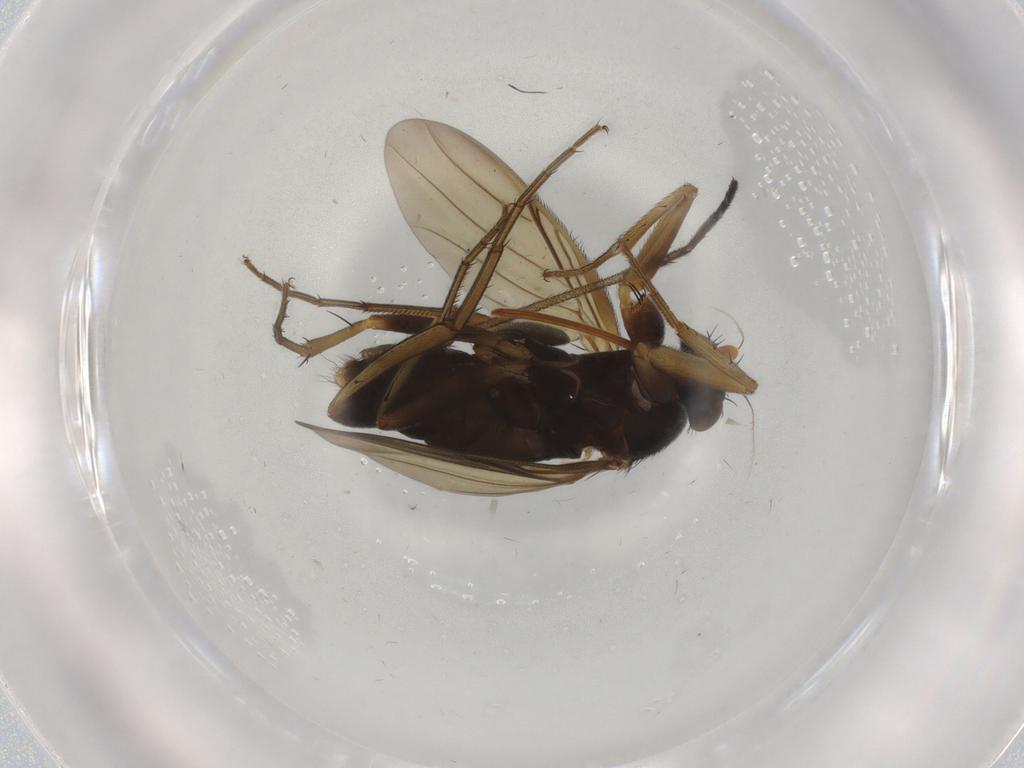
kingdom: Animalia
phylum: Arthropoda
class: Insecta
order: Diptera
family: Phoridae
